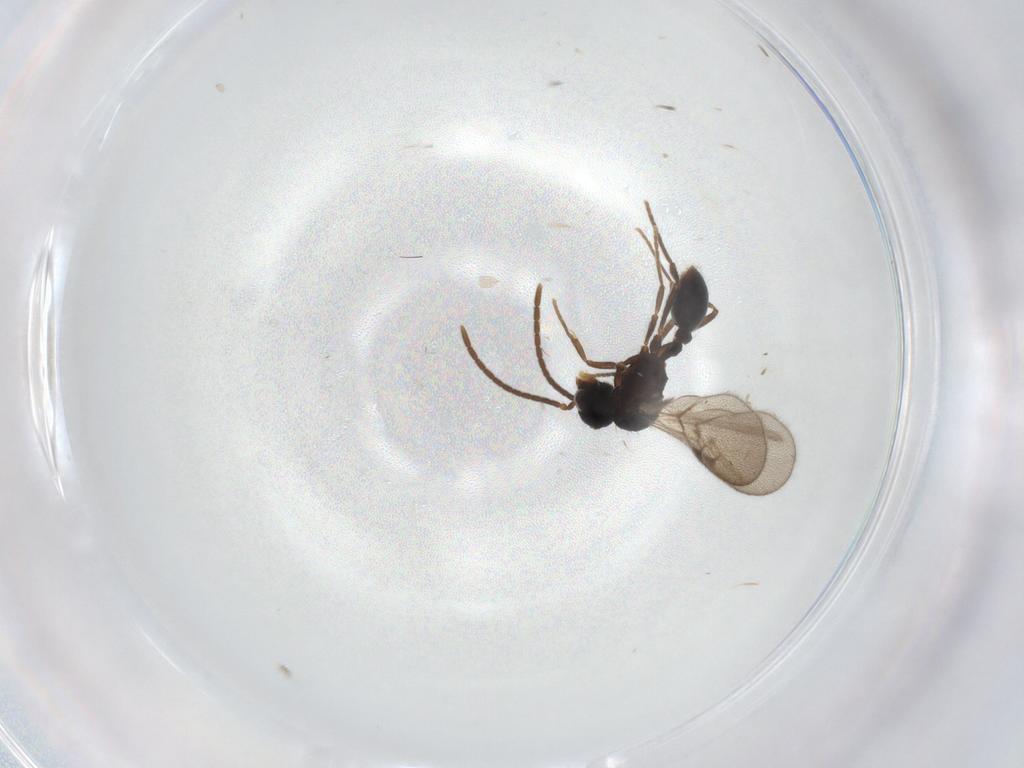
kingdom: Animalia
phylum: Arthropoda
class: Insecta
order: Hymenoptera
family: Formicidae
